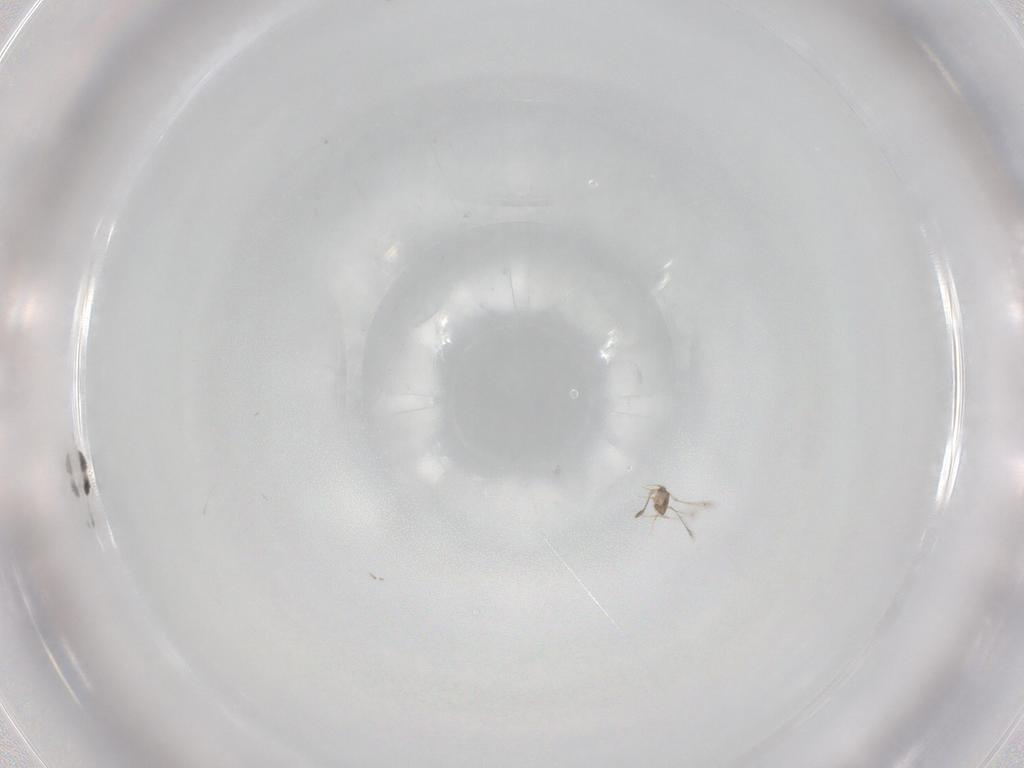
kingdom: Animalia
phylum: Arthropoda
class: Insecta
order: Hymenoptera
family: Mymaridae
